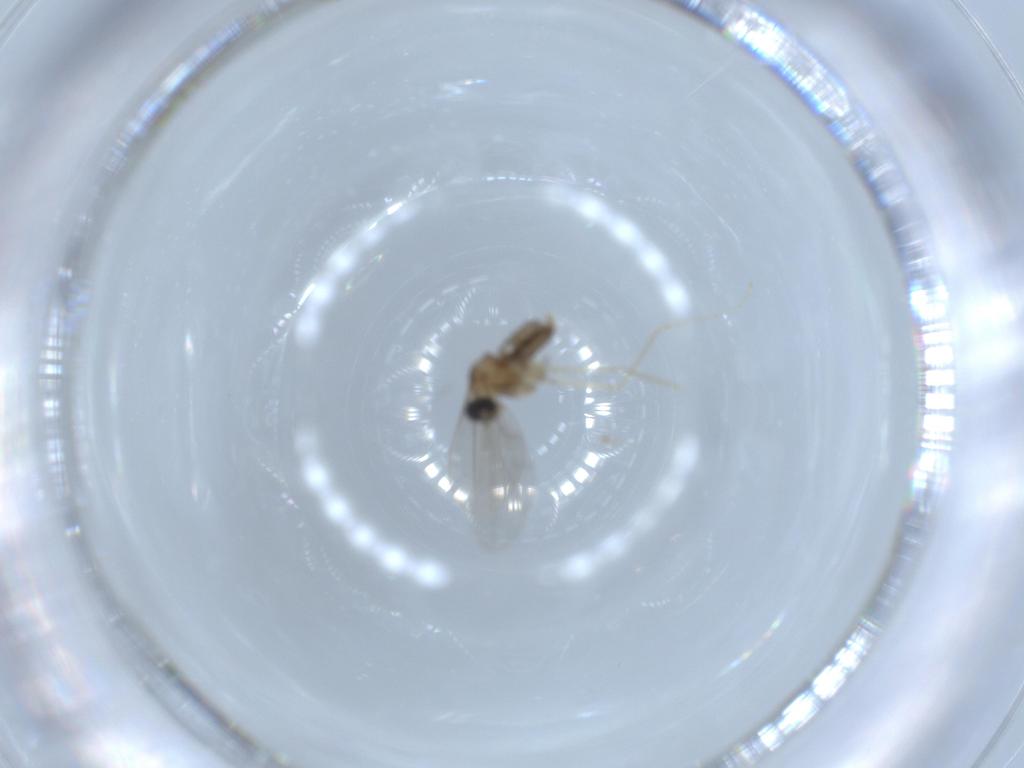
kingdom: Animalia
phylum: Arthropoda
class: Insecta
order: Diptera
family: Cecidomyiidae
